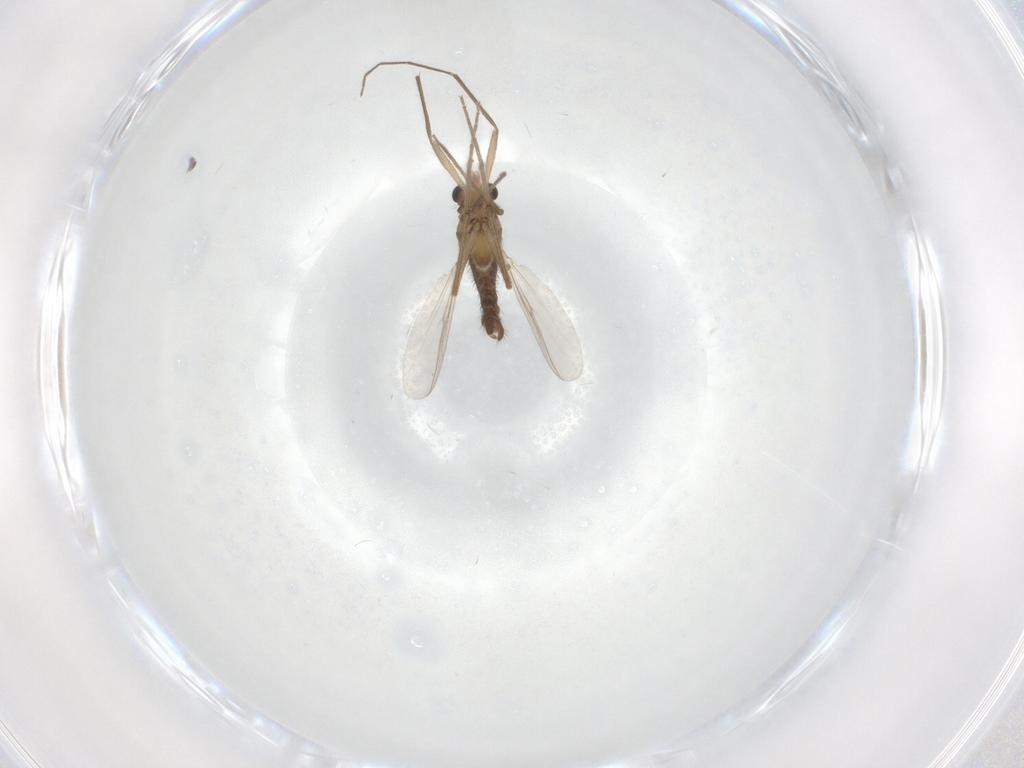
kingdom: Animalia
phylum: Arthropoda
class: Insecta
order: Diptera
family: Chironomidae
